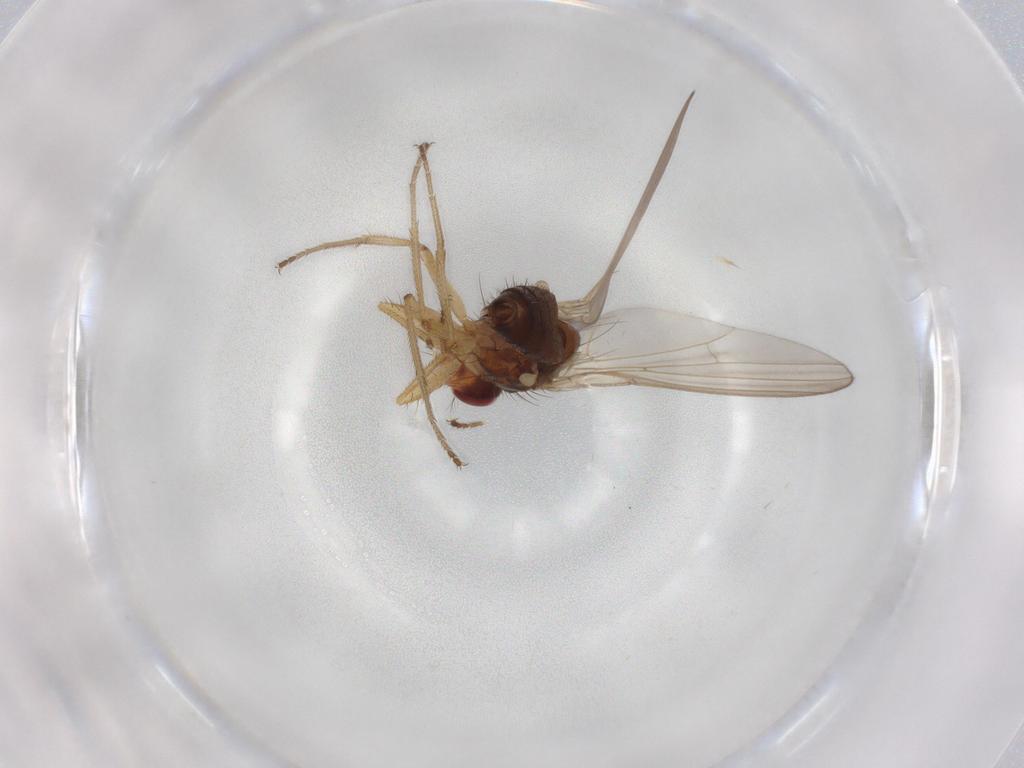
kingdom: Animalia
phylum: Arthropoda
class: Insecta
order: Diptera
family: Drosophilidae
